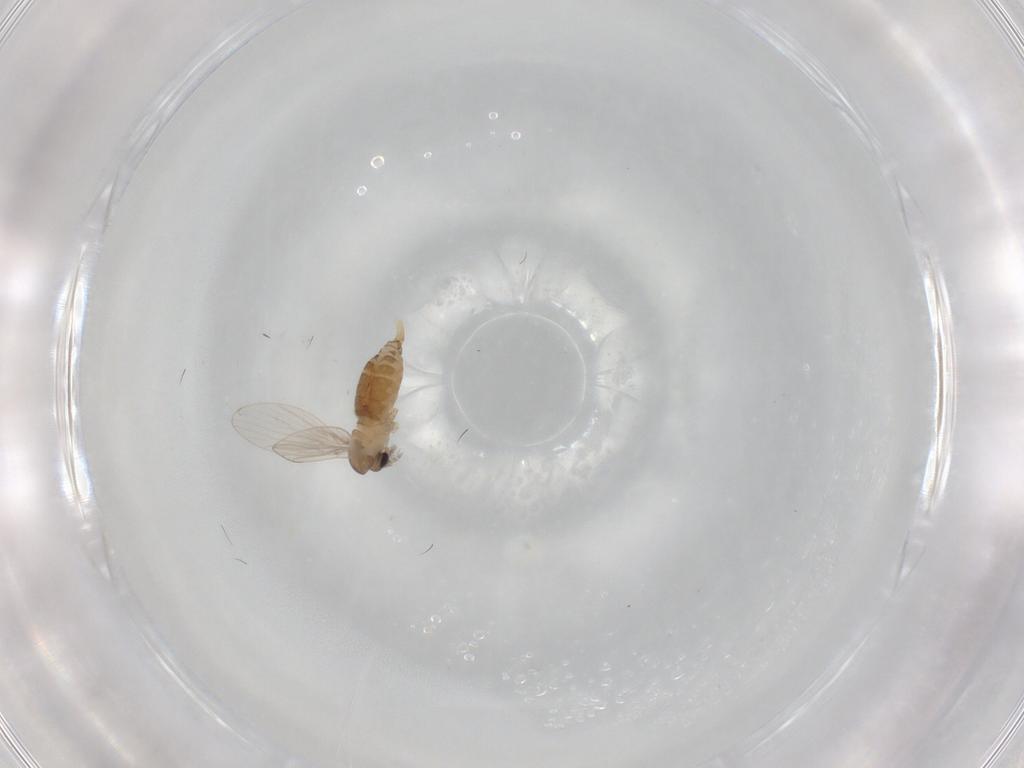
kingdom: Animalia
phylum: Arthropoda
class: Insecta
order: Diptera
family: Psychodidae
